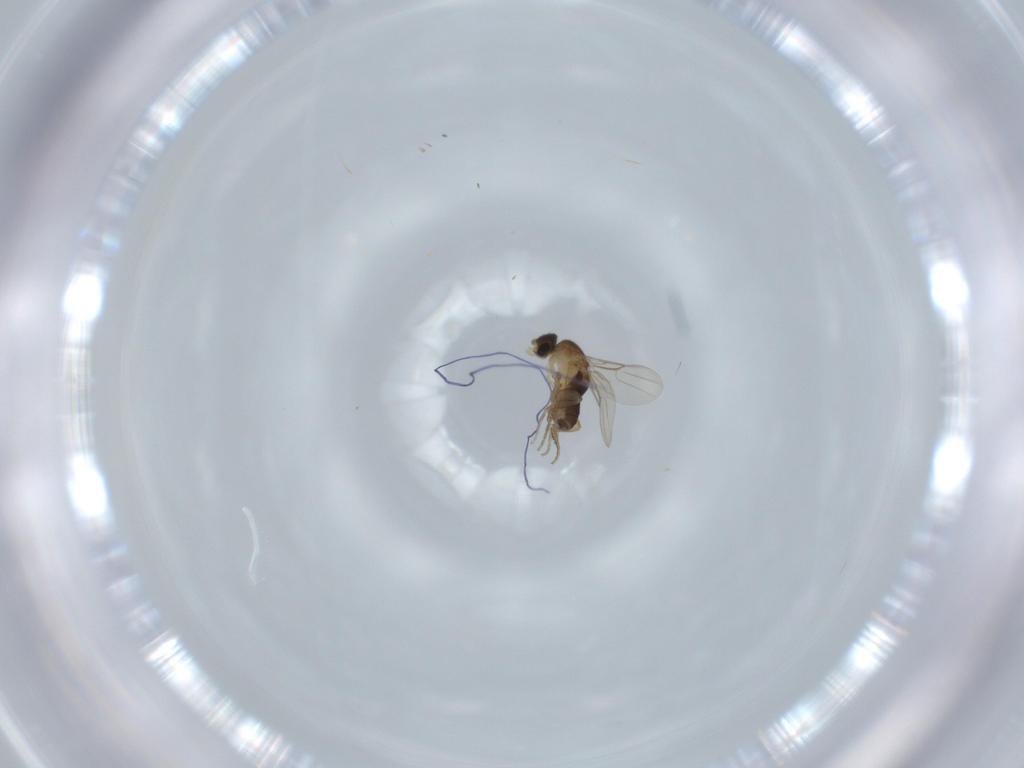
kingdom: Animalia
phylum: Arthropoda
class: Insecta
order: Diptera
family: Phoridae
